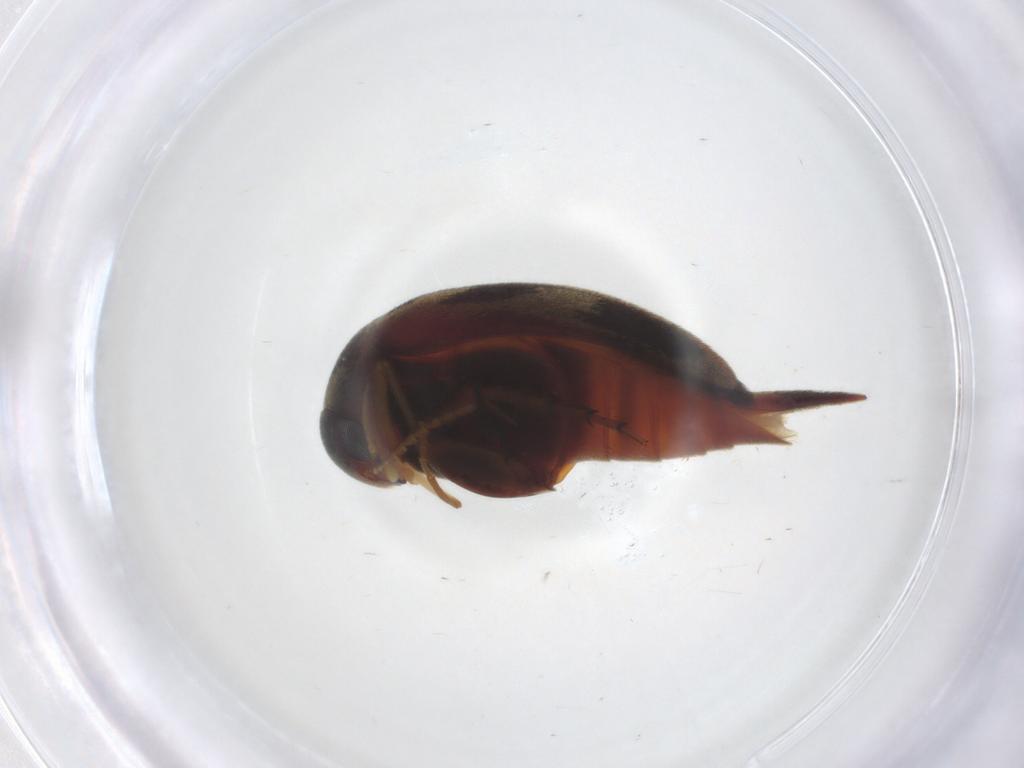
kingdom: Animalia
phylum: Arthropoda
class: Insecta
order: Coleoptera
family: Mordellidae
